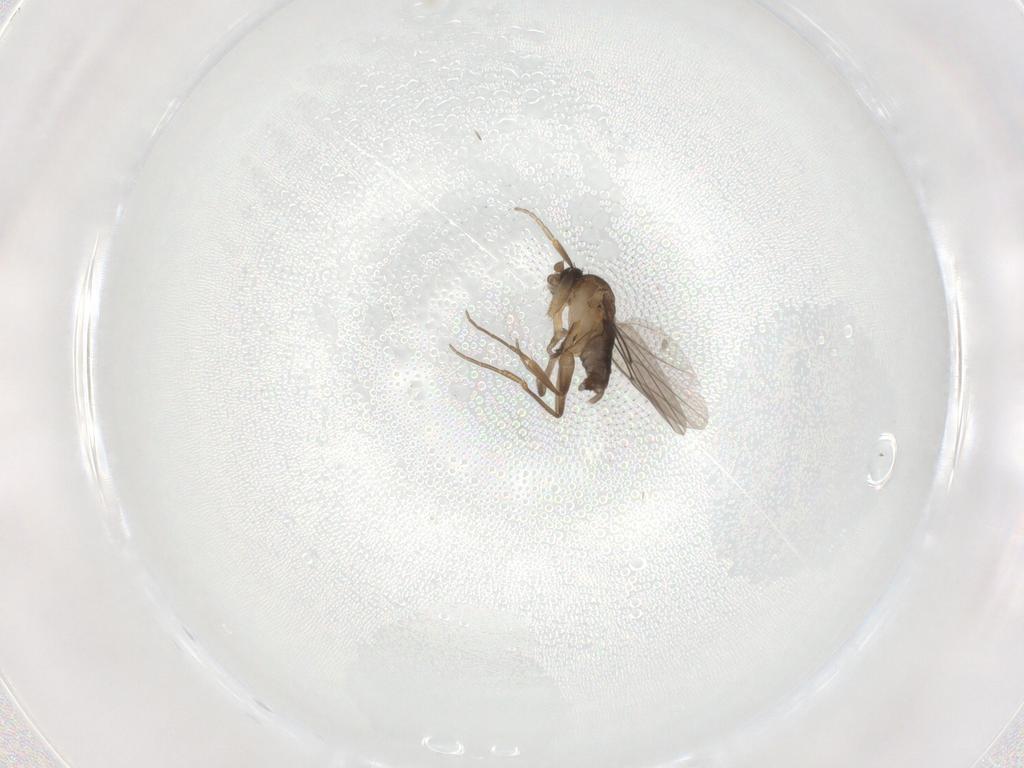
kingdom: Animalia
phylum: Arthropoda
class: Insecta
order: Diptera
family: Phoridae
